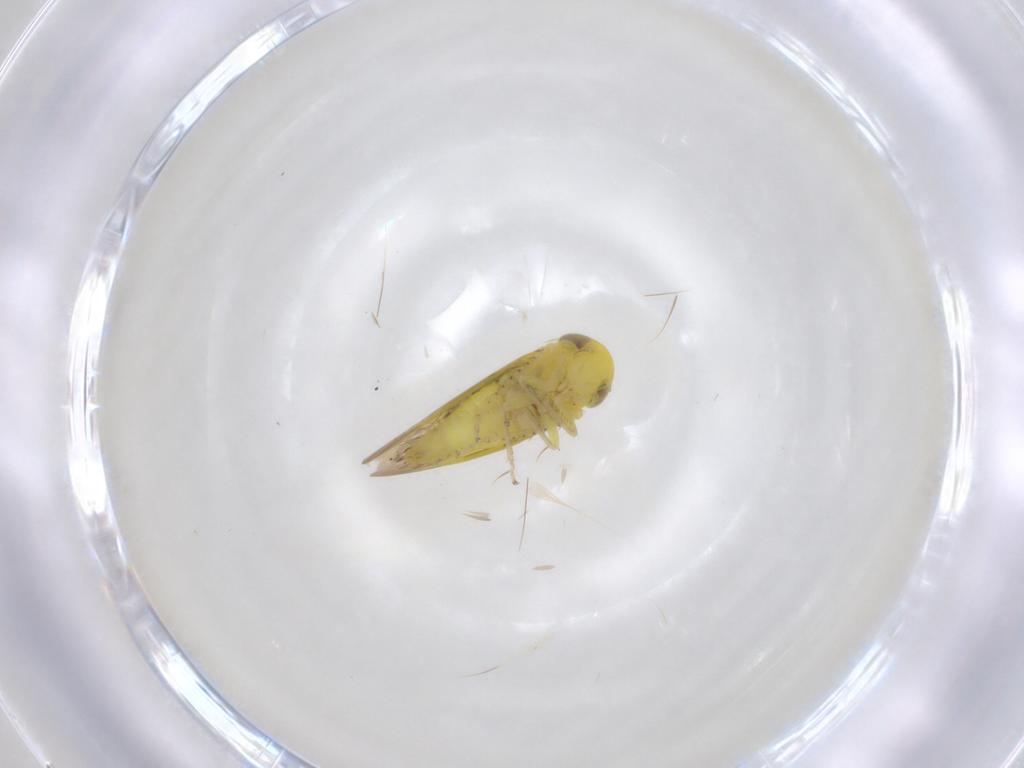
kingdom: Animalia
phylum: Arthropoda
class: Insecta
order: Hemiptera
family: Cicadellidae
